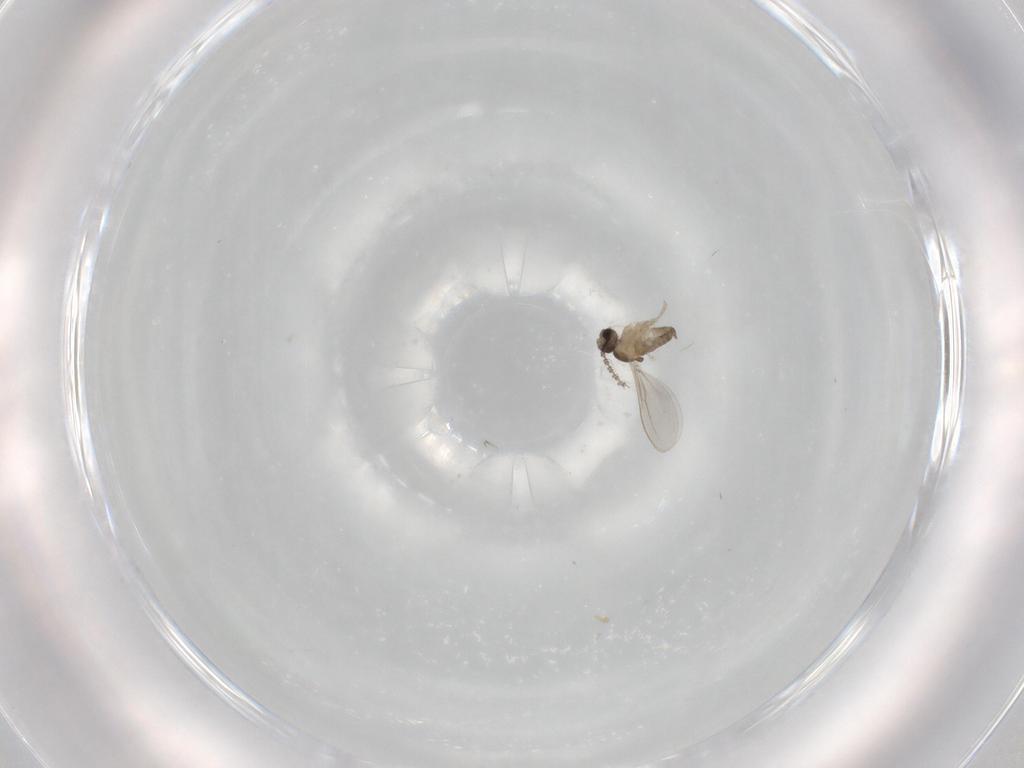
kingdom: Animalia
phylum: Arthropoda
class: Insecta
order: Diptera
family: Cecidomyiidae
